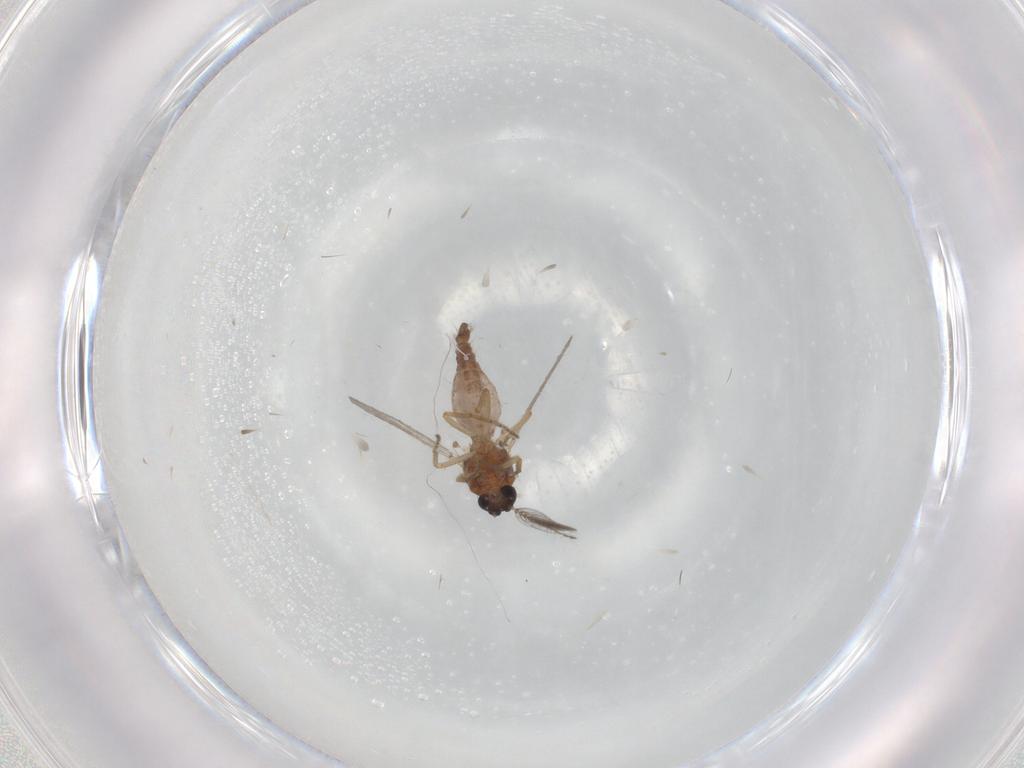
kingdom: Animalia
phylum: Arthropoda
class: Insecta
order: Diptera
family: Ceratopogonidae
